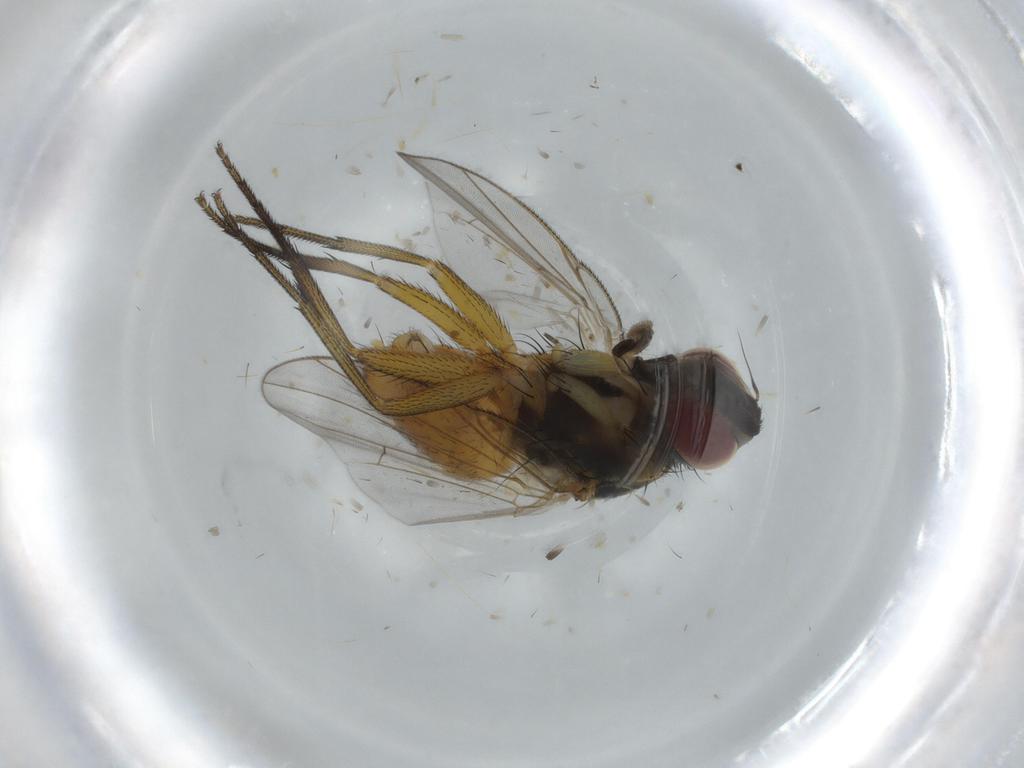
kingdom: Animalia
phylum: Arthropoda
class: Insecta
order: Diptera
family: Muscidae
